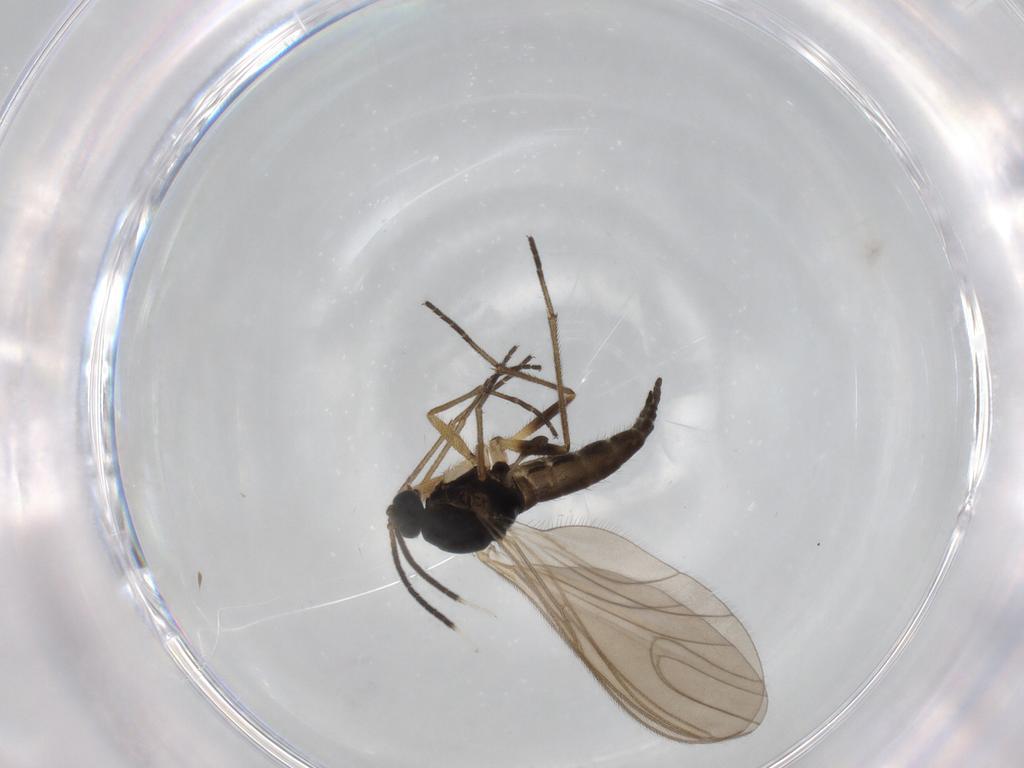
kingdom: Animalia
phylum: Arthropoda
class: Insecta
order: Diptera
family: Sciaridae
